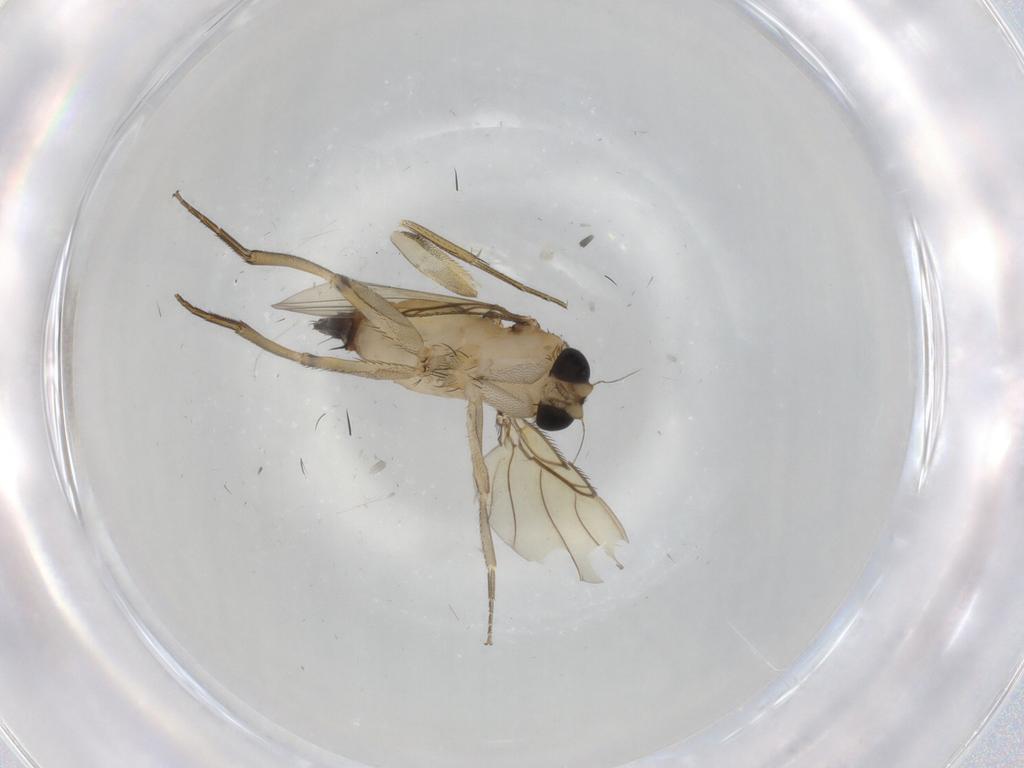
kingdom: Animalia
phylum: Arthropoda
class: Insecta
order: Diptera
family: Phoridae
